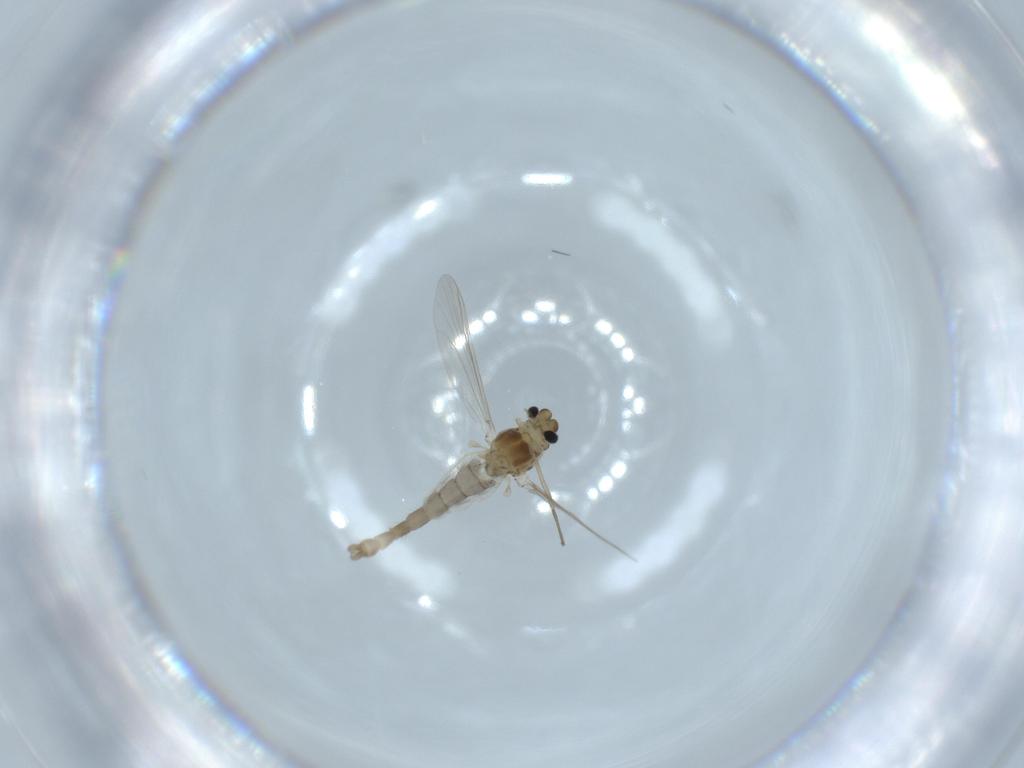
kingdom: Animalia
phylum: Arthropoda
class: Insecta
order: Diptera
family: Chironomidae
